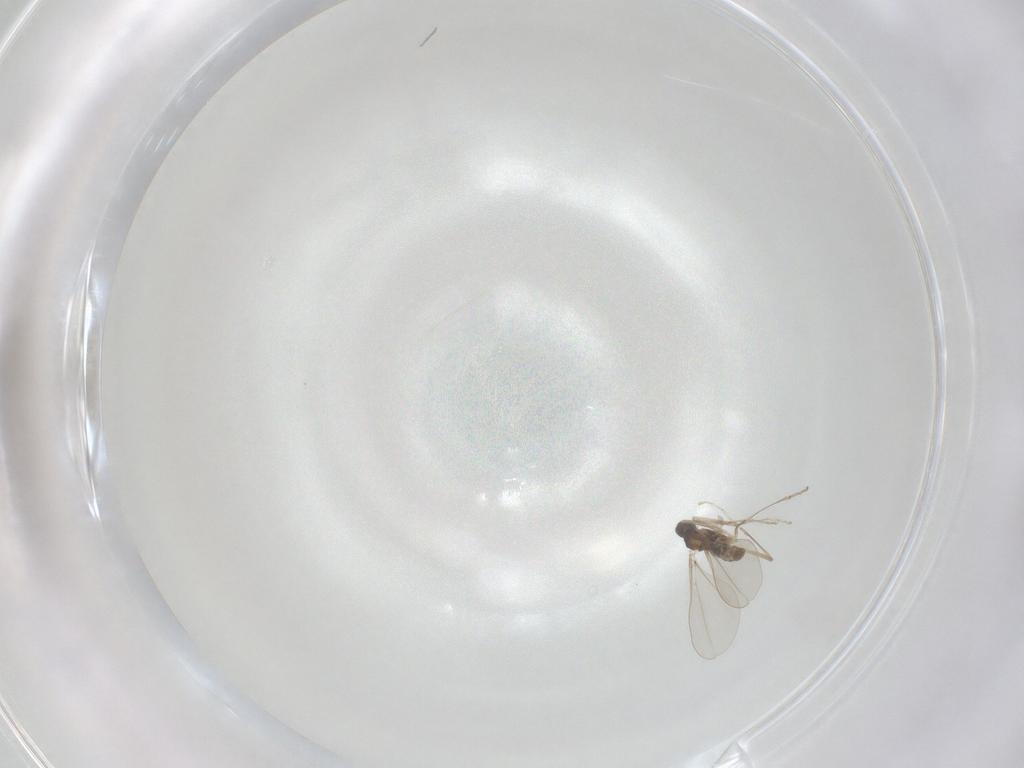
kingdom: Animalia
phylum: Arthropoda
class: Insecta
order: Diptera
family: Cecidomyiidae
